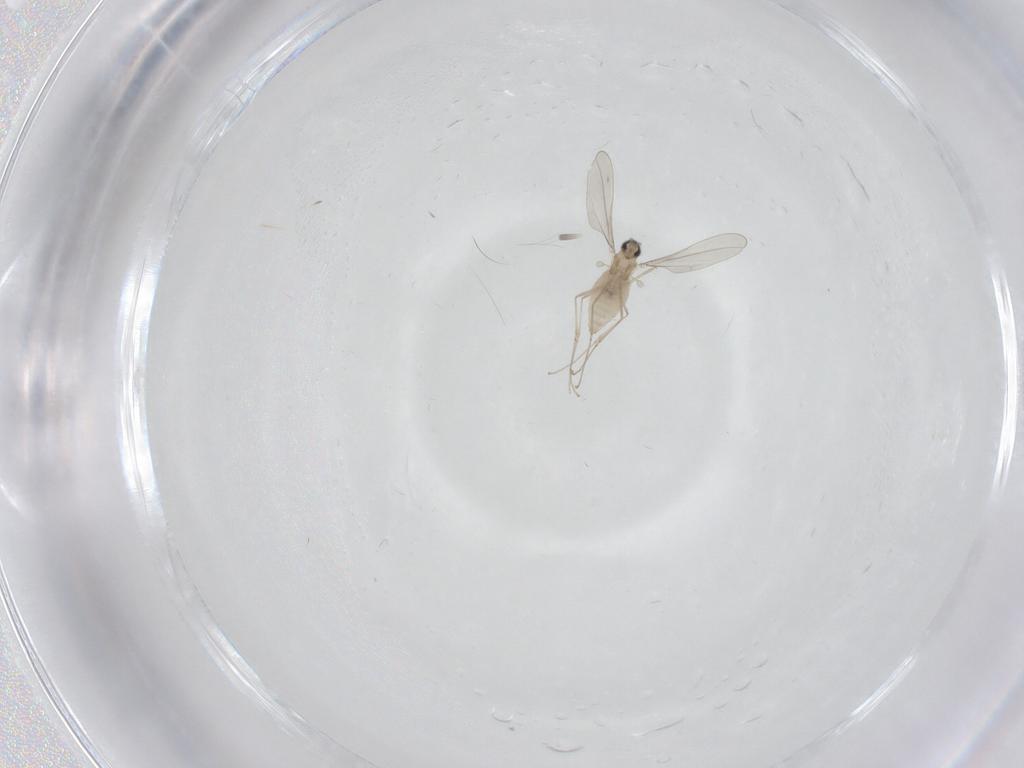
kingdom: Animalia
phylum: Arthropoda
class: Insecta
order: Diptera
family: Cecidomyiidae
